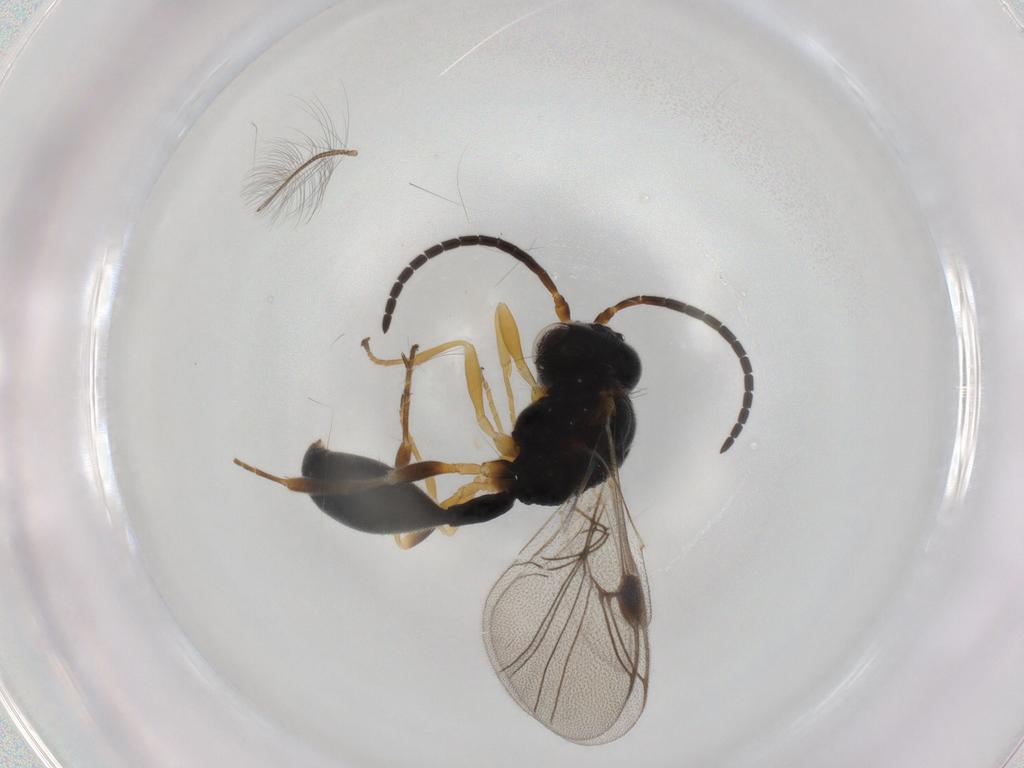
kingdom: Animalia
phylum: Arthropoda
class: Insecta
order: Hymenoptera
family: Heloridae
